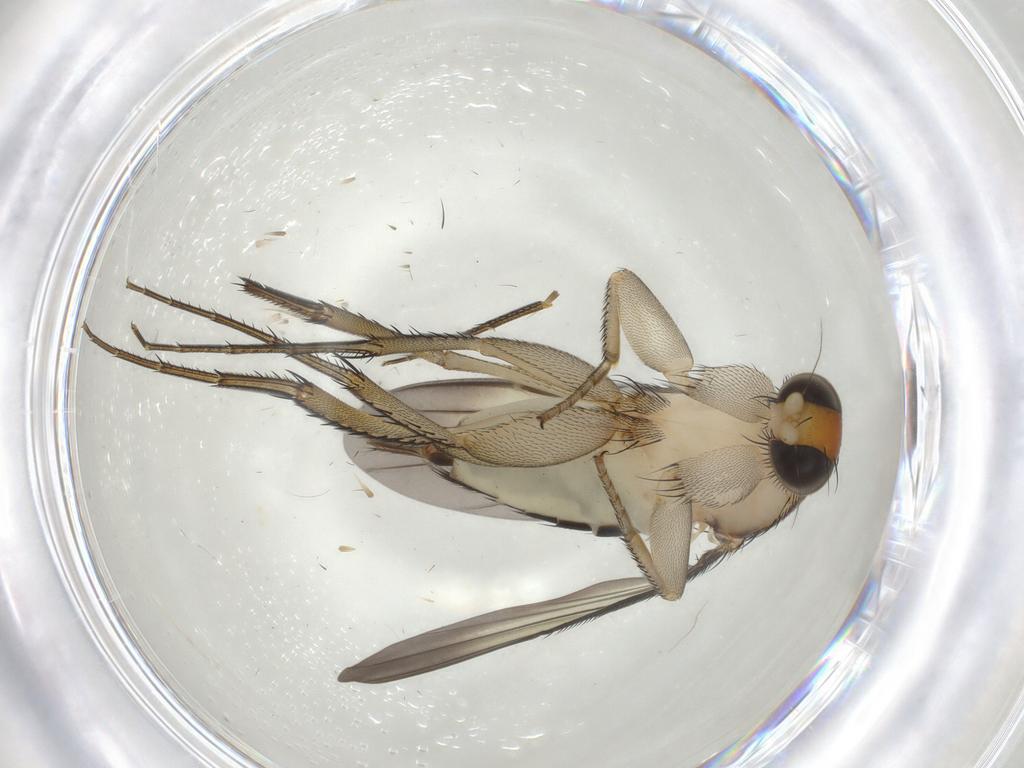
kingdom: Animalia
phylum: Arthropoda
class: Insecta
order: Diptera
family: Phoridae
